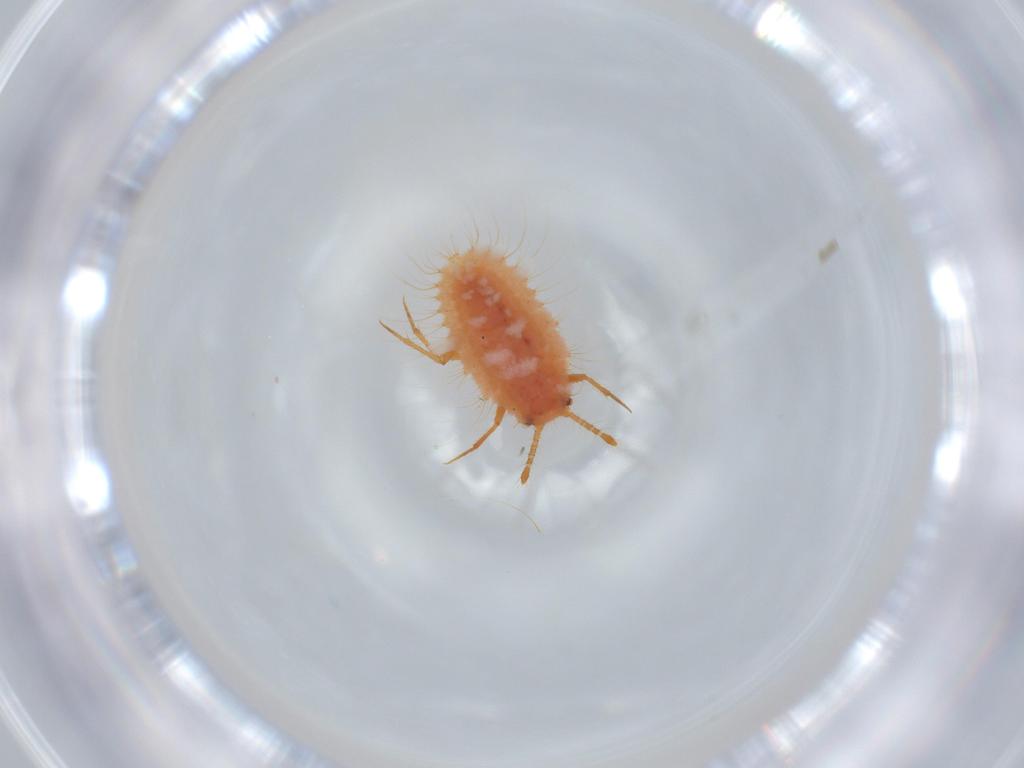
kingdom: Animalia
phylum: Arthropoda
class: Insecta
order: Hemiptera
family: Coccoidea_incertae_sedis
